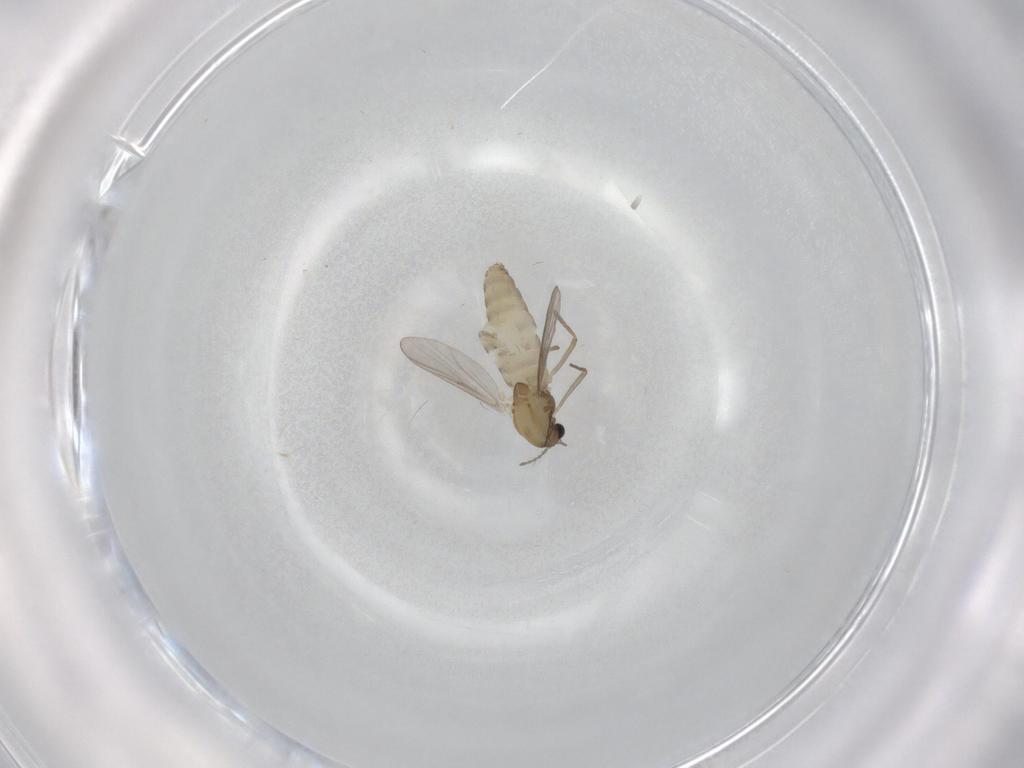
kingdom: Animalia
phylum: Arthropoda
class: Insecta
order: Diptera
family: Chironomidae
